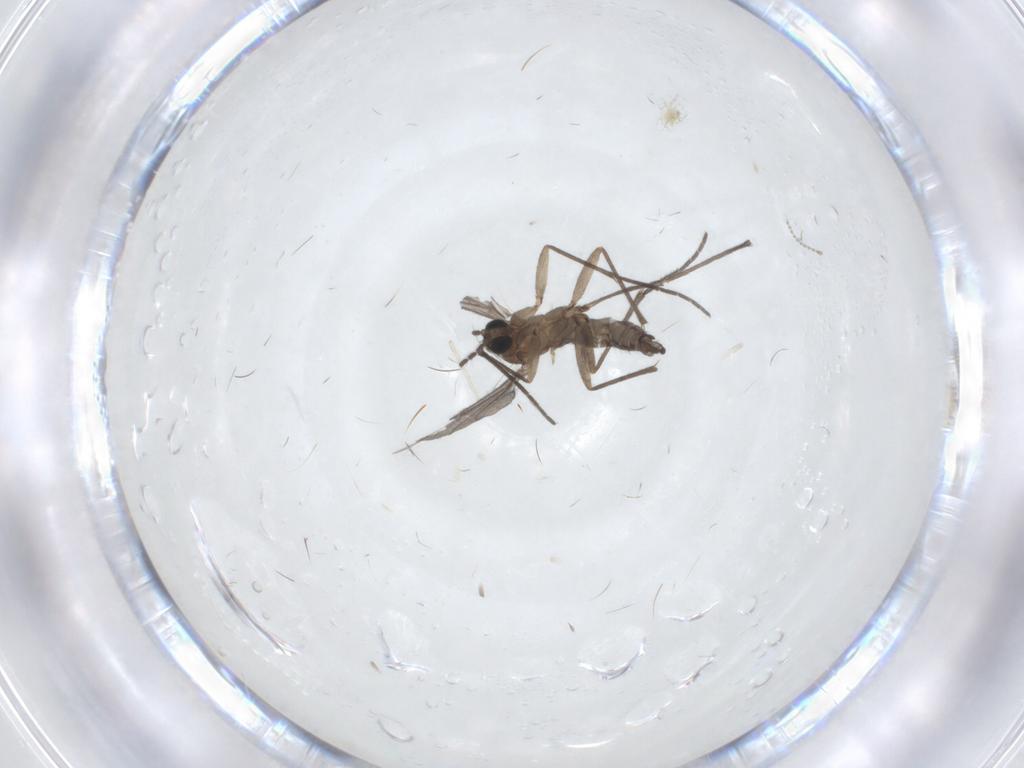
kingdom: Animalia
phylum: Arthropoda
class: Insecta
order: Diptera
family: Sciaridae
